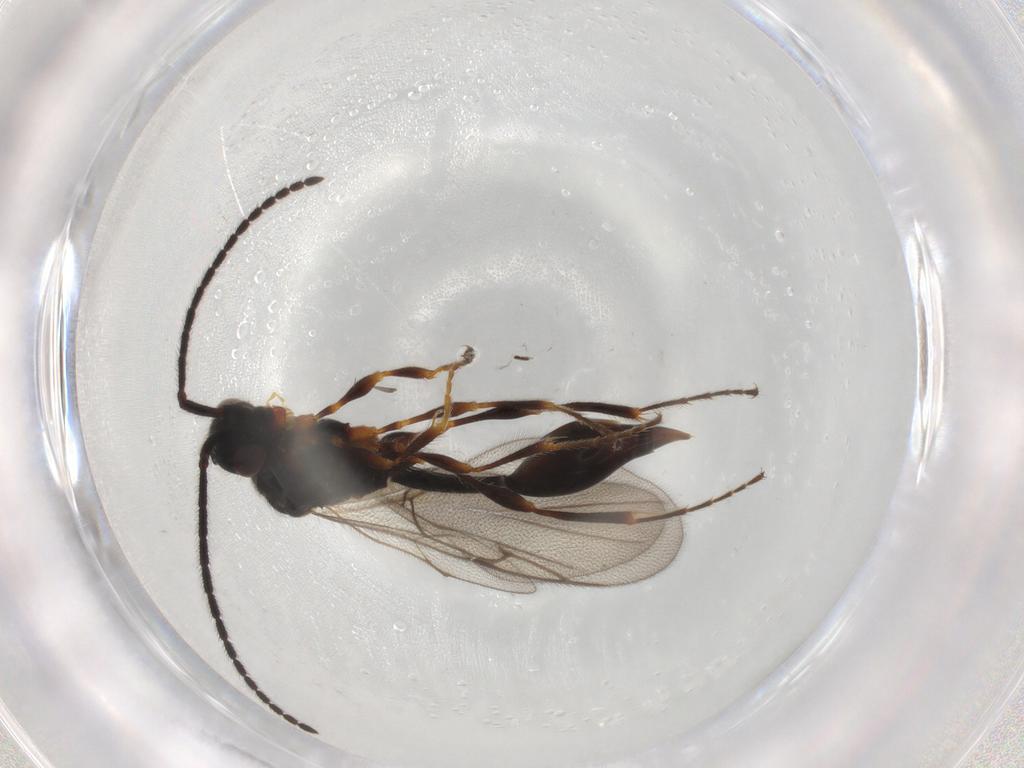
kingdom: Animalia
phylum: Arthropoda
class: Insecta
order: Hymenoptera
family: Diapriidae
